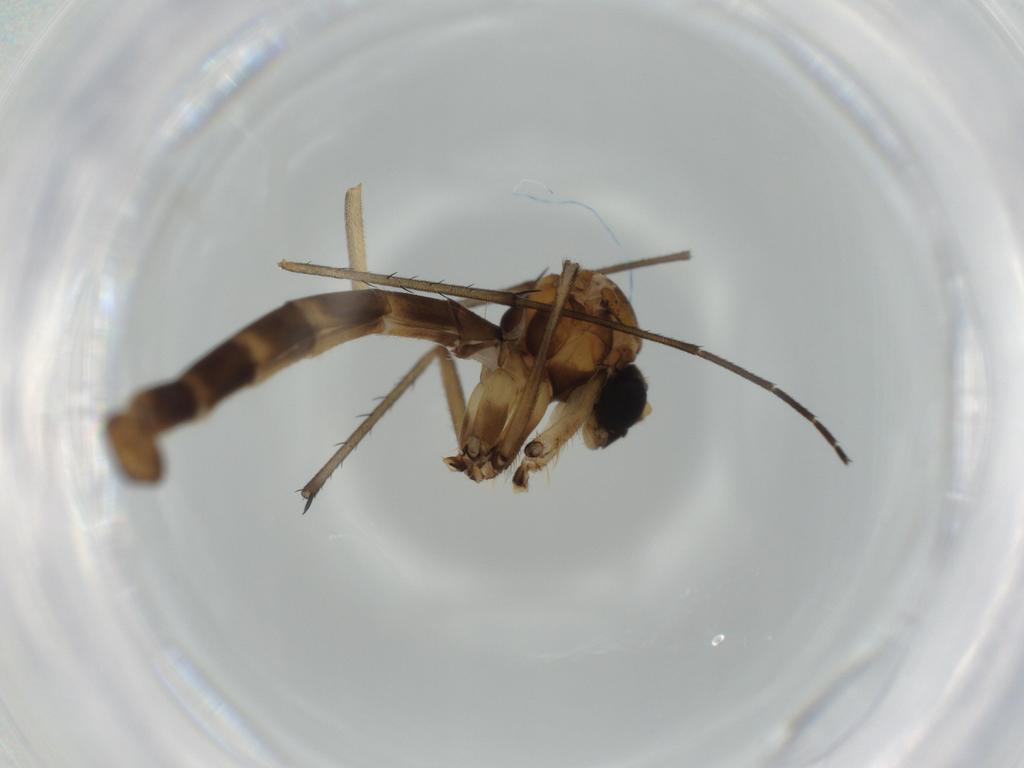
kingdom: Animalia
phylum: Arthropoda
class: Insecta
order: Diptera
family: Chironomidae
